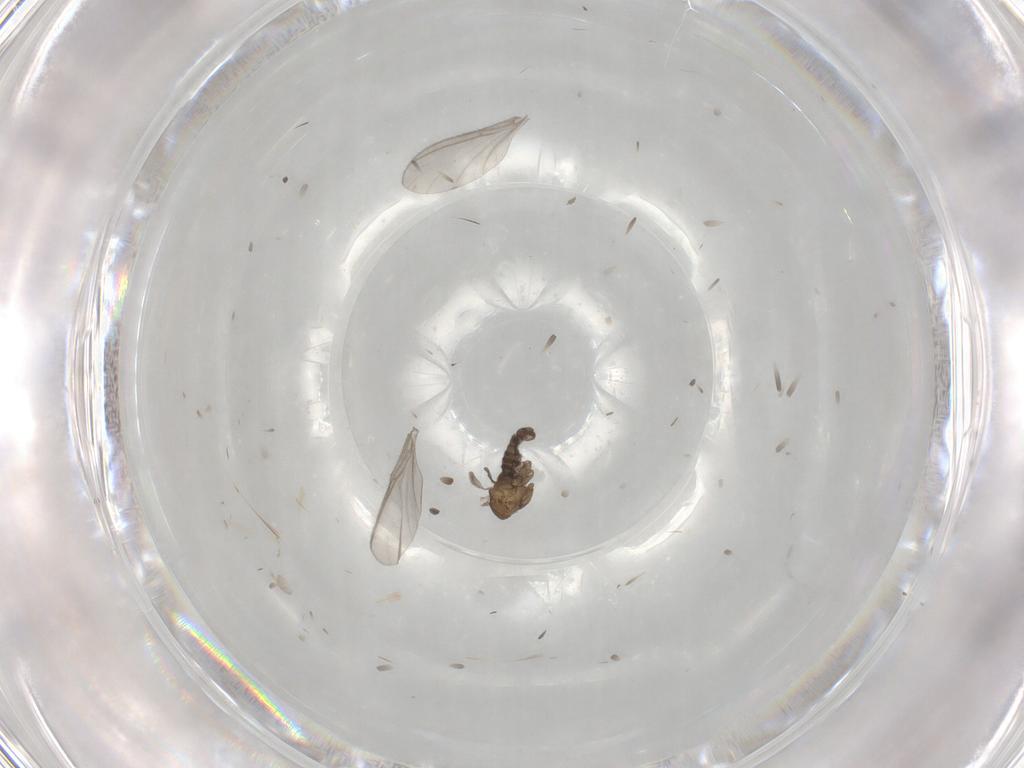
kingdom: Animalia
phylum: Arthropoda
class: Insecta
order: Diptera
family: Sciaridae
